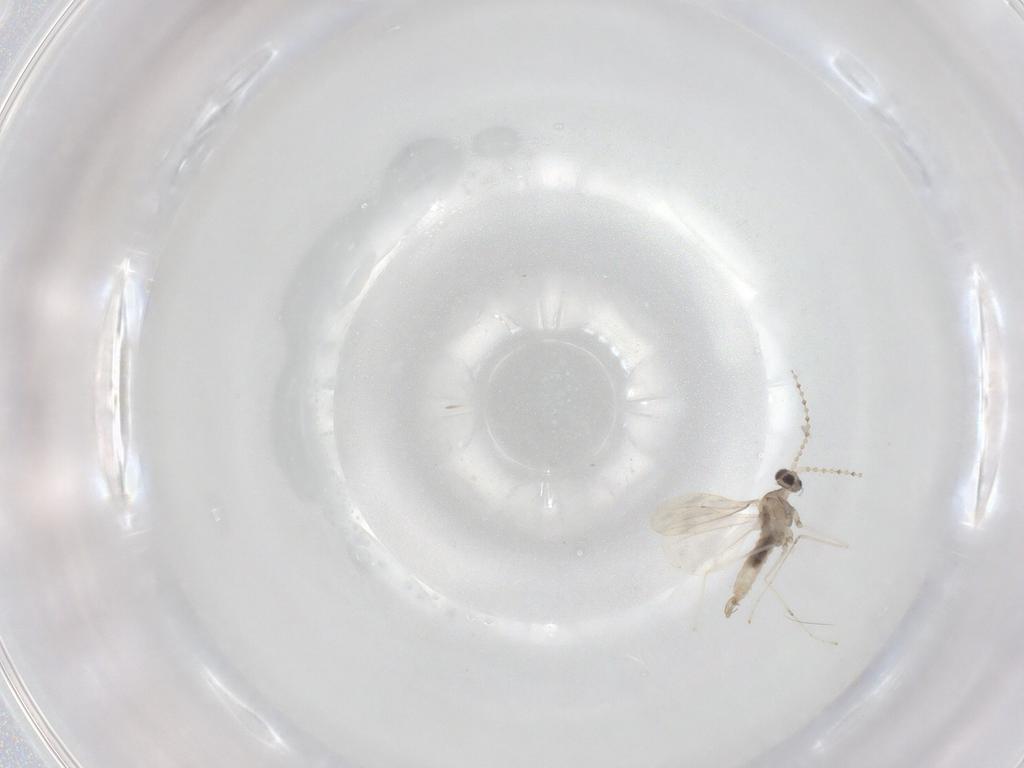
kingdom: Animalia
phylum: Arthropoda
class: Insecta
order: Diptera
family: Cecidomyiidae
